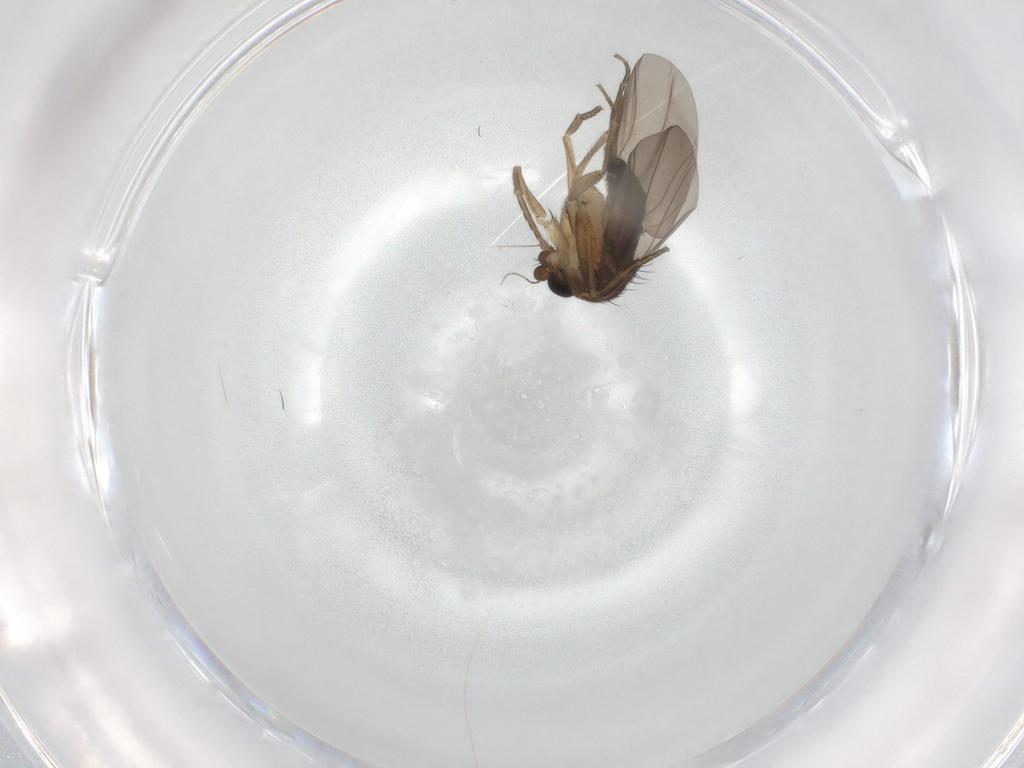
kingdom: Animalia
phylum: Arthropoda
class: Insecta
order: Diptera
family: Phoridae
